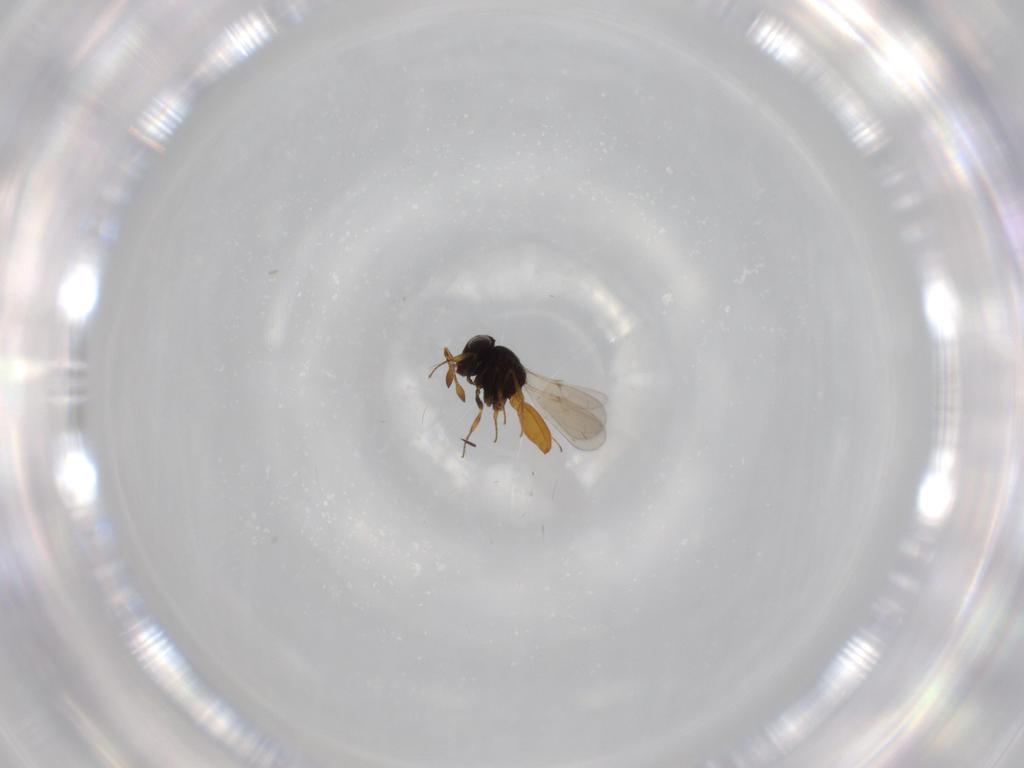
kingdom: Animalia
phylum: Arthropoda
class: Insecta
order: Hymenoptera
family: Scelionidae
